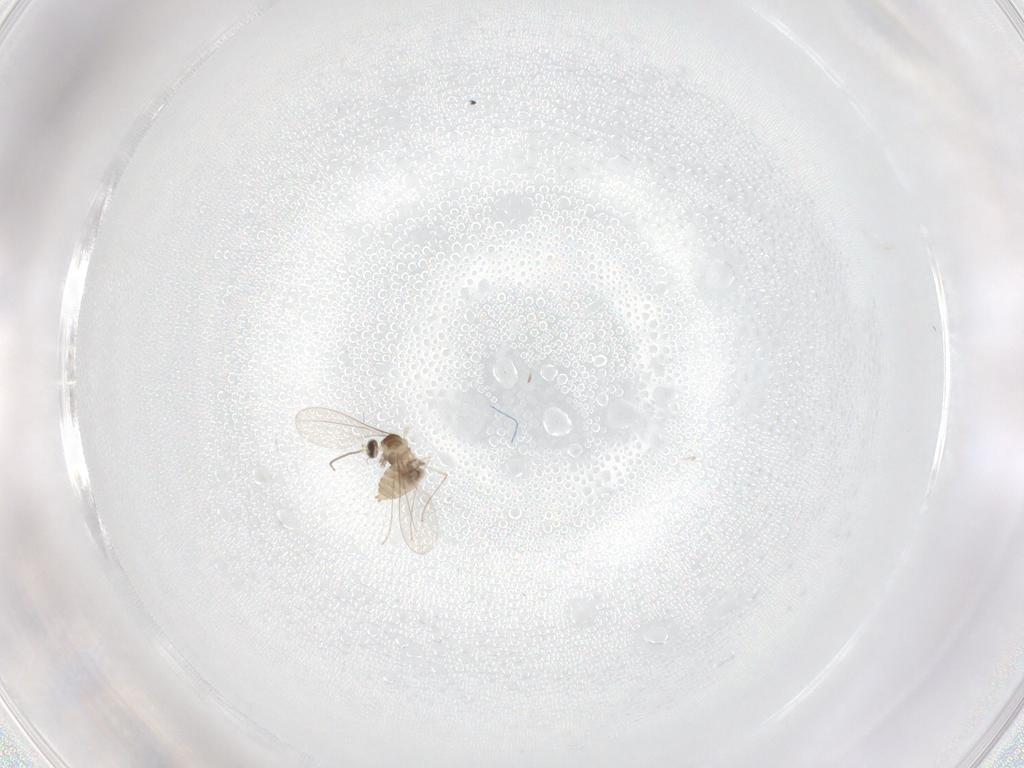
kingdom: Animalia
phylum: Arthropoda
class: Insecta
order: Diptera
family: Cecidomyiidae
